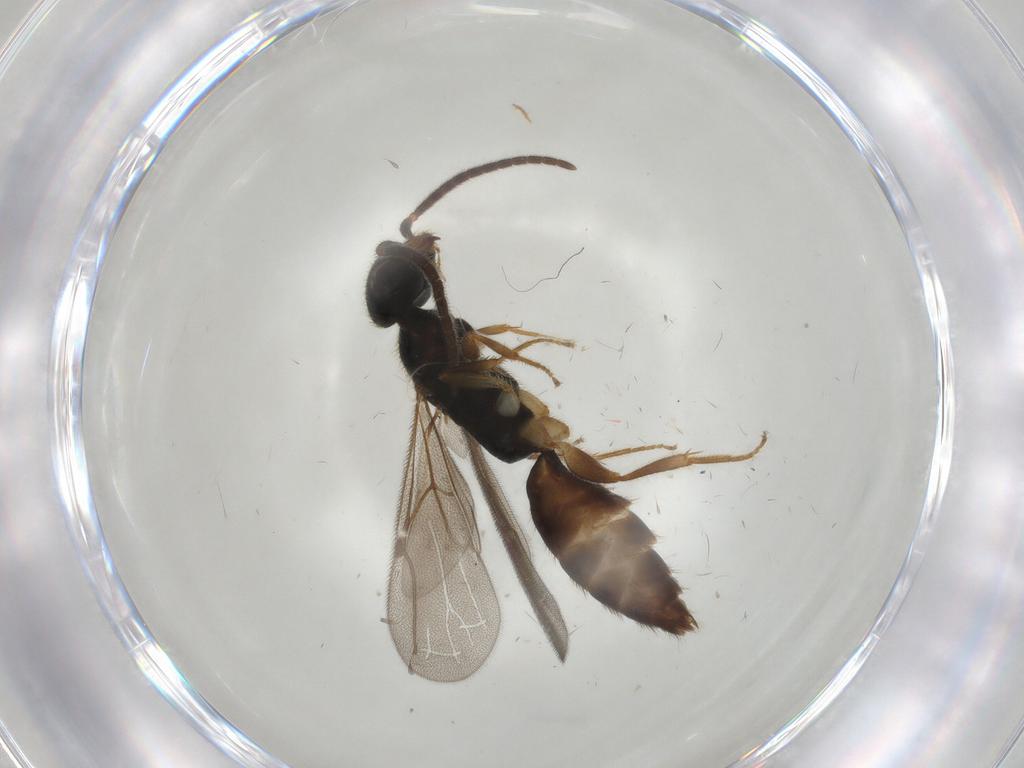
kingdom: Animalia
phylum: Arthropoda
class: Insecta
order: Hymenoptera
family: Bethylidae
